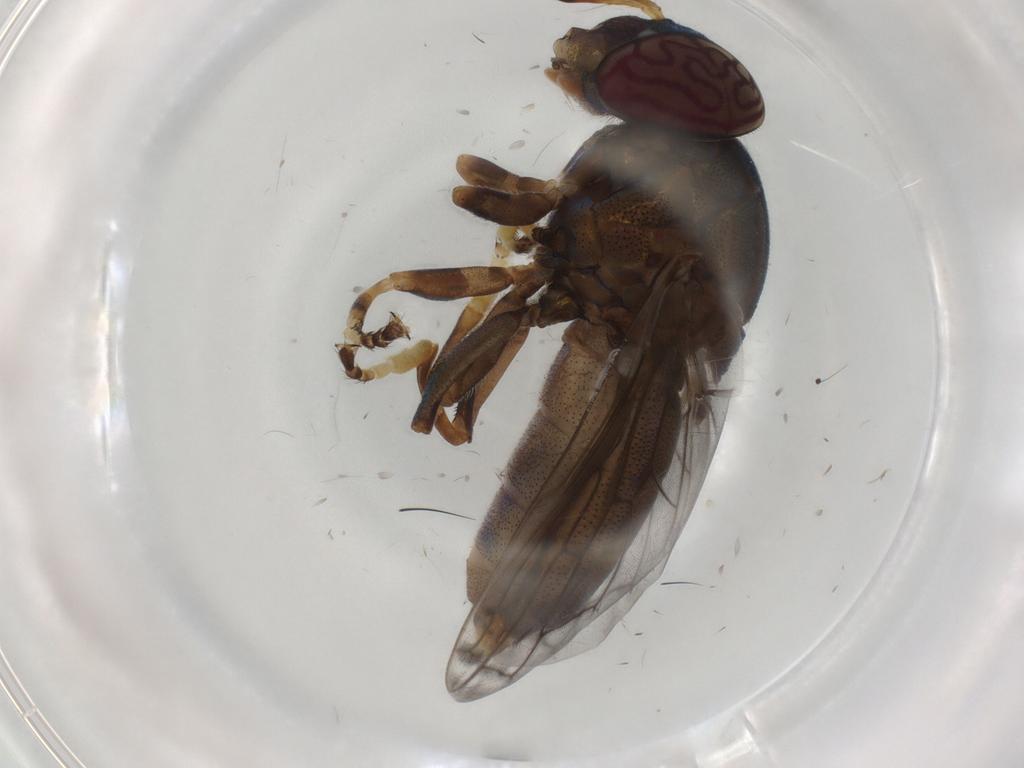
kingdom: Animalia
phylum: Arthropoda
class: Insecta
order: Diptera
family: Syrphidae
